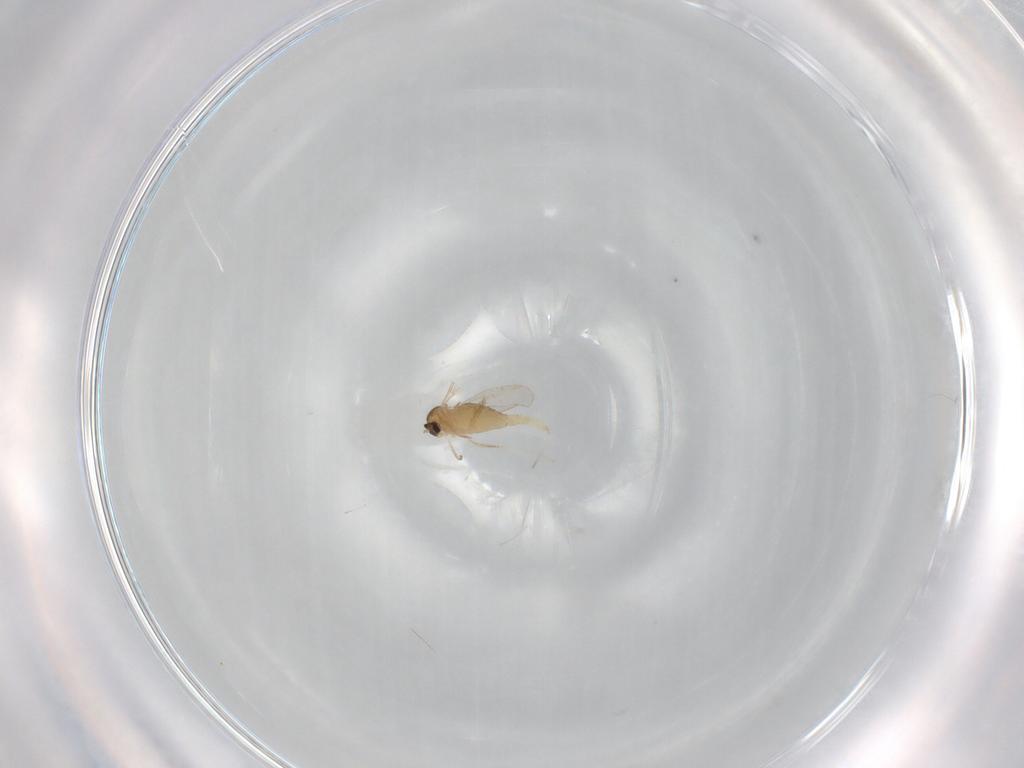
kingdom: Animalia
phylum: Arthropoda
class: Insecta
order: Diptera
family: Cecidomyiidae
